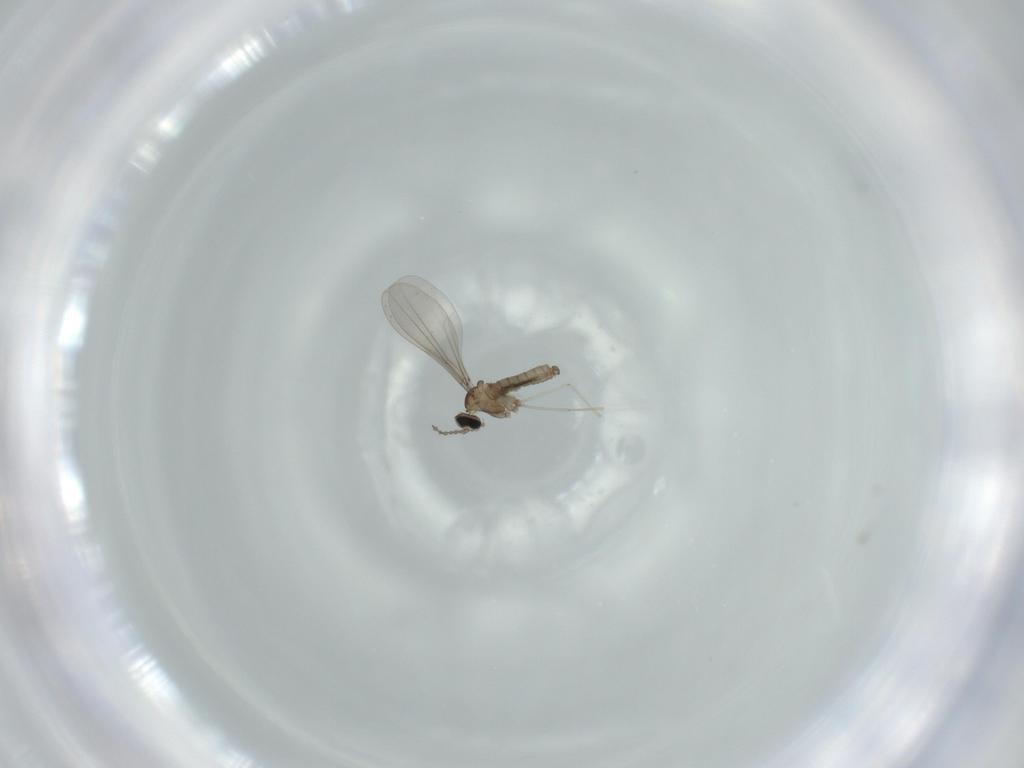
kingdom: Animalia
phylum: Arthropoda
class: Insecta
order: Diptera
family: Cecidomyiidae
